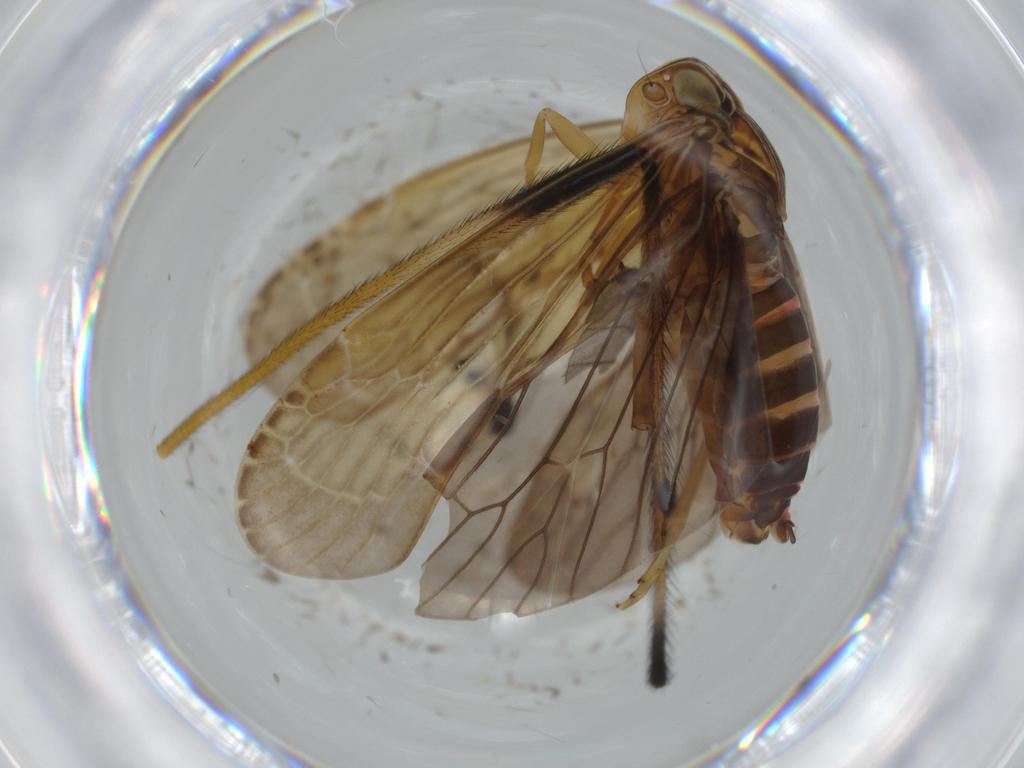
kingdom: Animalia
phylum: Arthropoda
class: Insecta
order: Hemiptera
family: Achilidae
